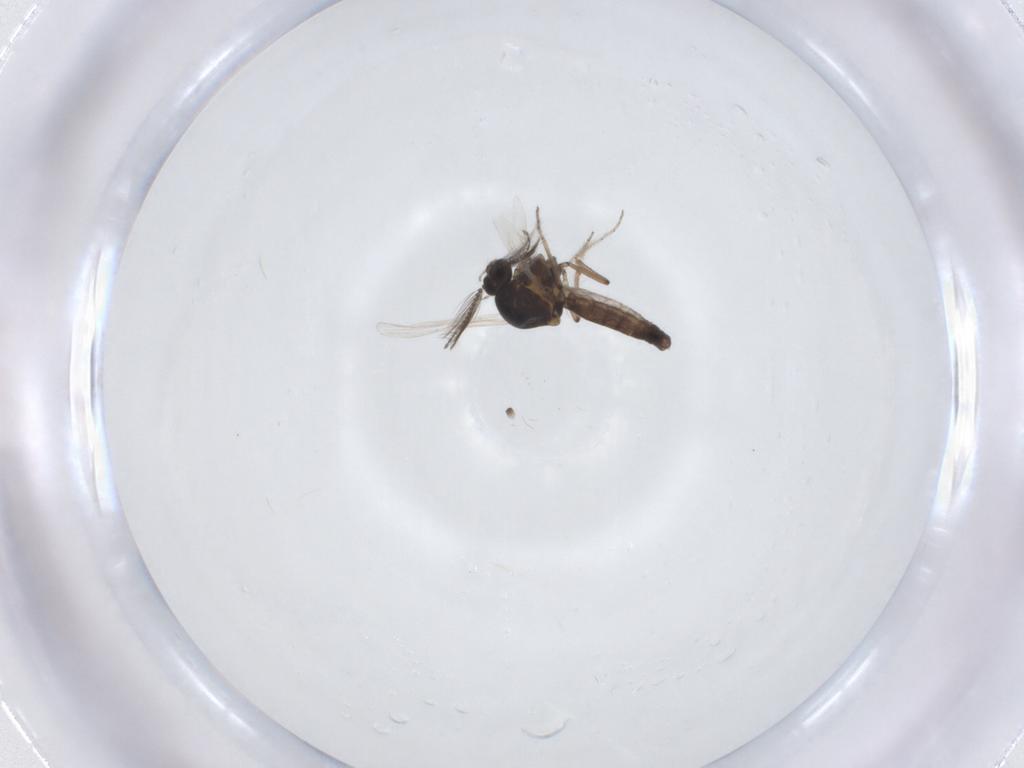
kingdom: Animalia
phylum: Arthropoda
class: Insecta
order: Diptera
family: Ceratopogonidae
